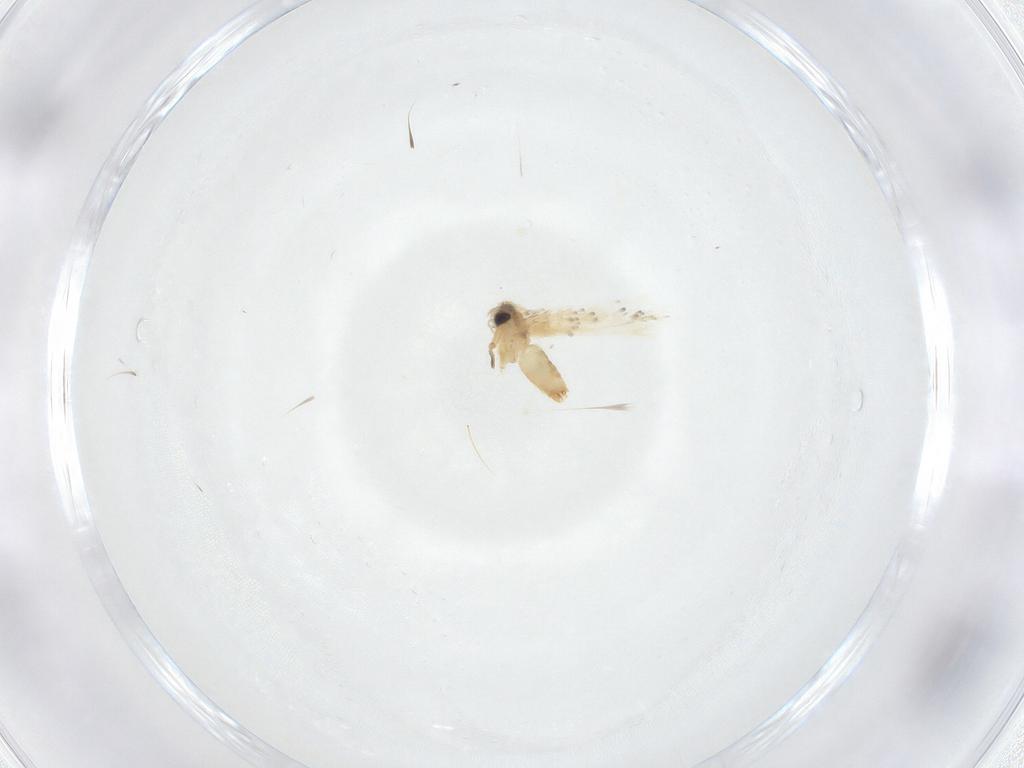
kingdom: Animalia
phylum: Arthropoda
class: Insecta
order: Lepidoptera
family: Crambidae
